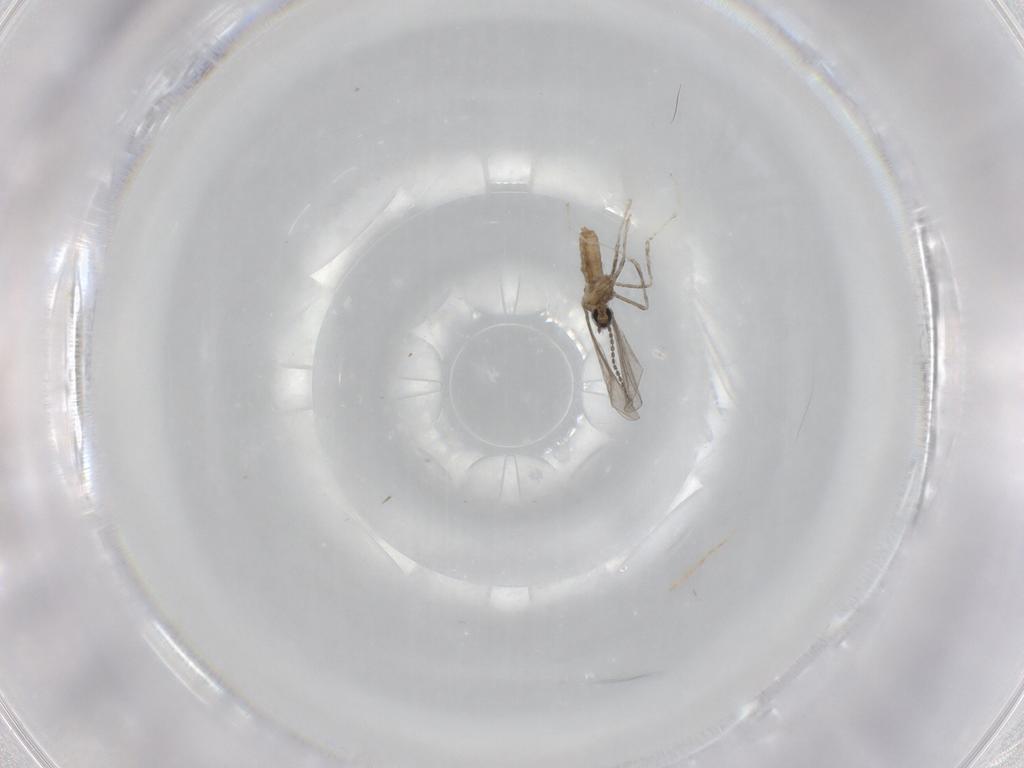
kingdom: Animalia
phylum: Arthropoda
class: Insecta
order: Diptera
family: Cecidomyiidae
